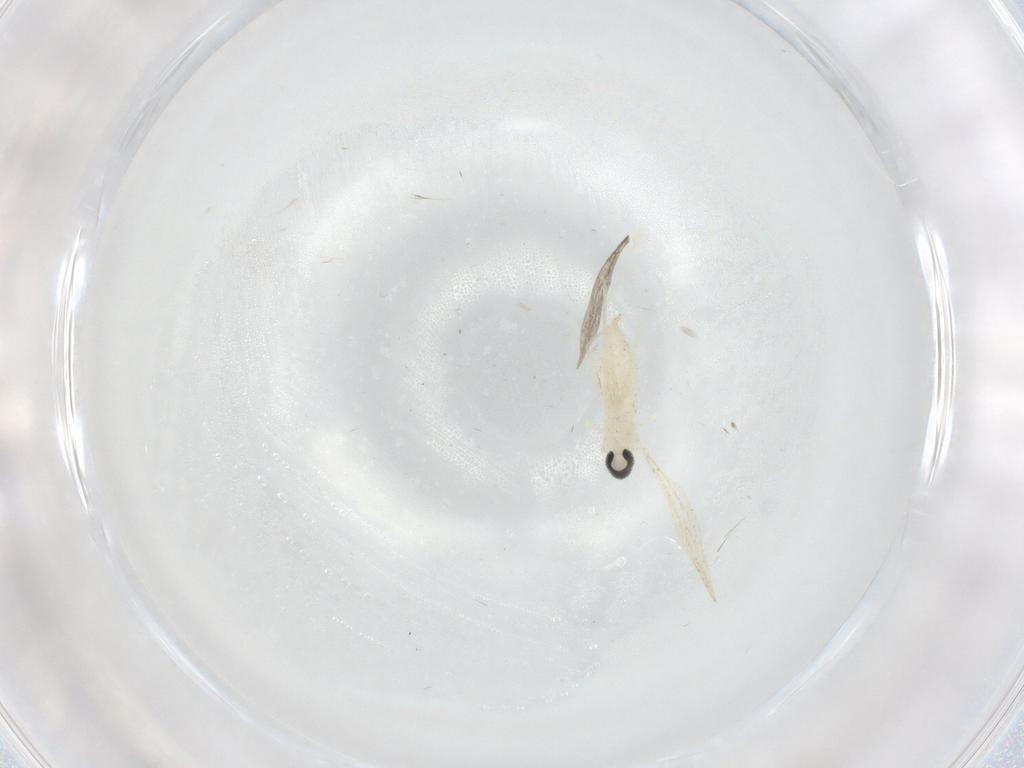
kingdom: Animalia
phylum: Arthropoda
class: Insecta
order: Diptera
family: Cecidomyiidae
